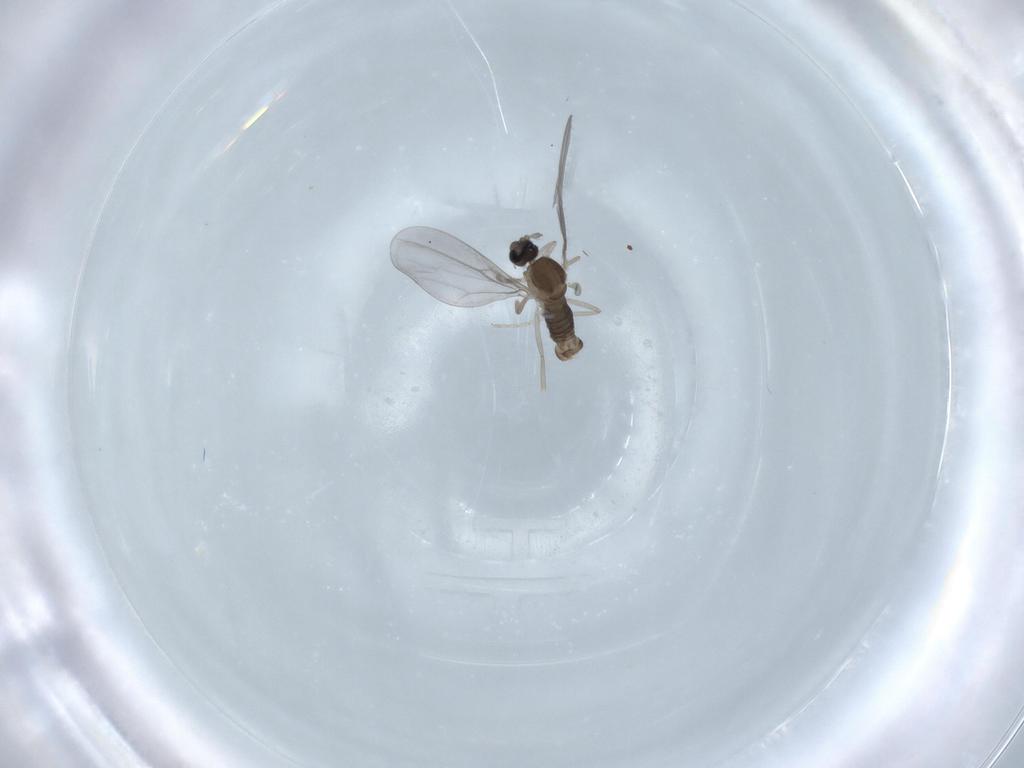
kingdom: Animalia
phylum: Arthropoda
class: Insecta
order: Diptera
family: Cecidomyiidae
